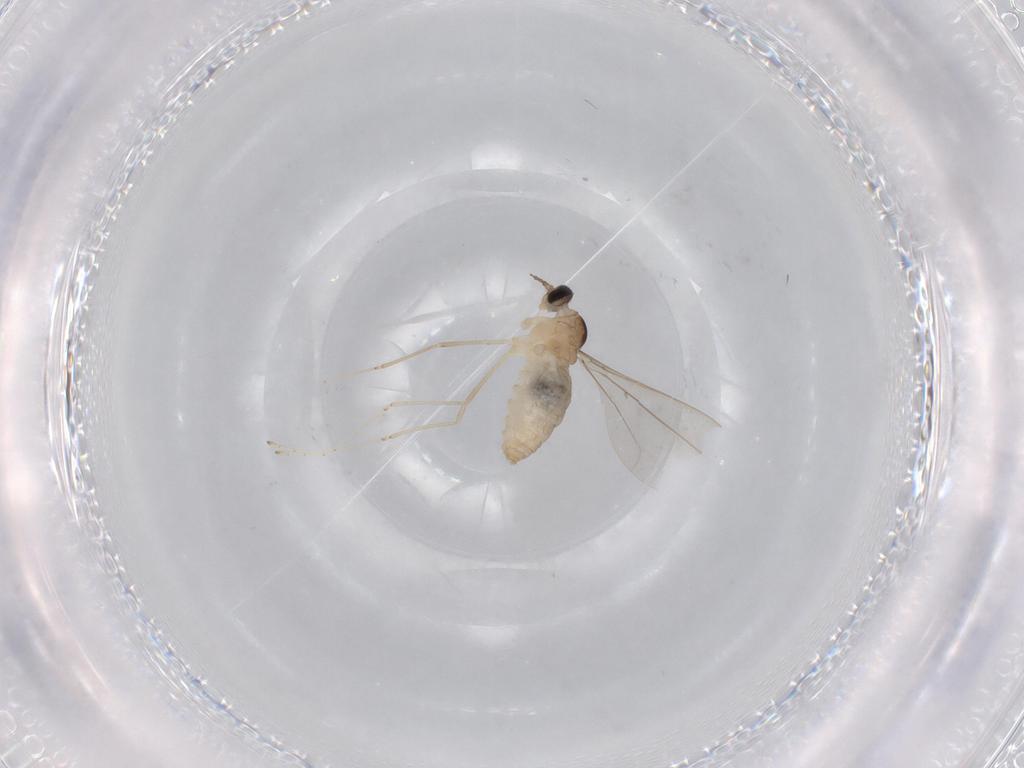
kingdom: Animalia
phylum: Arthropoda
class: Insecta
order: Diptera
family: Cecidomyiidae
